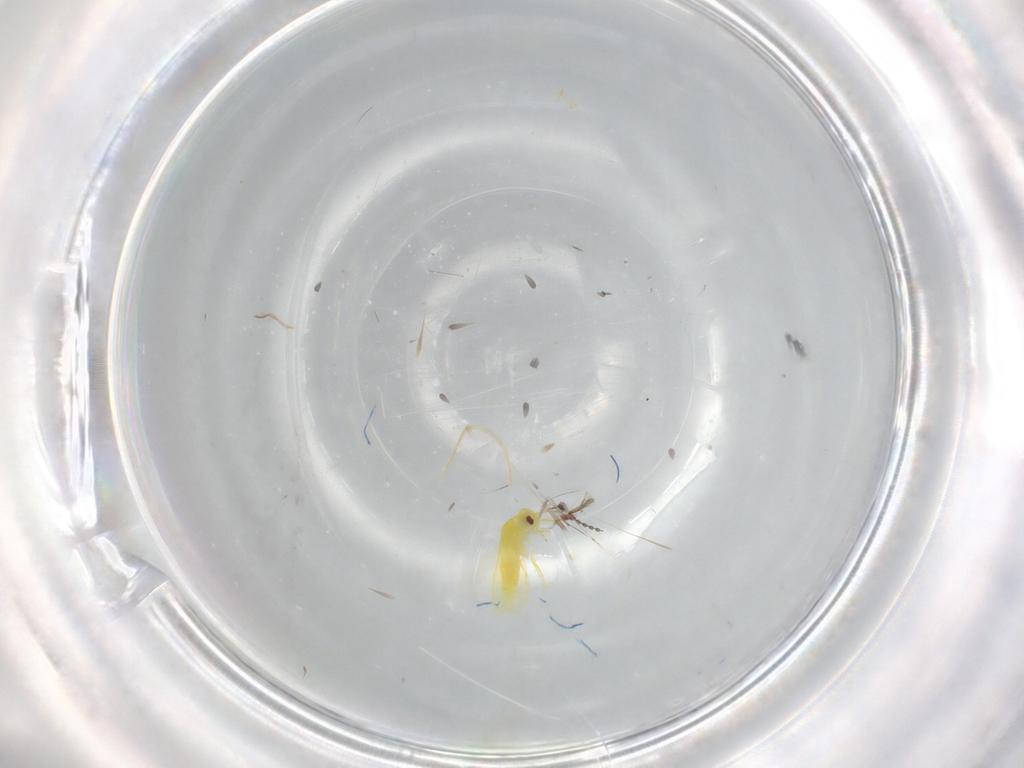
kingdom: Animalia
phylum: Arthropoda
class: Insecta
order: Hemiptera
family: Aleyrodidae
